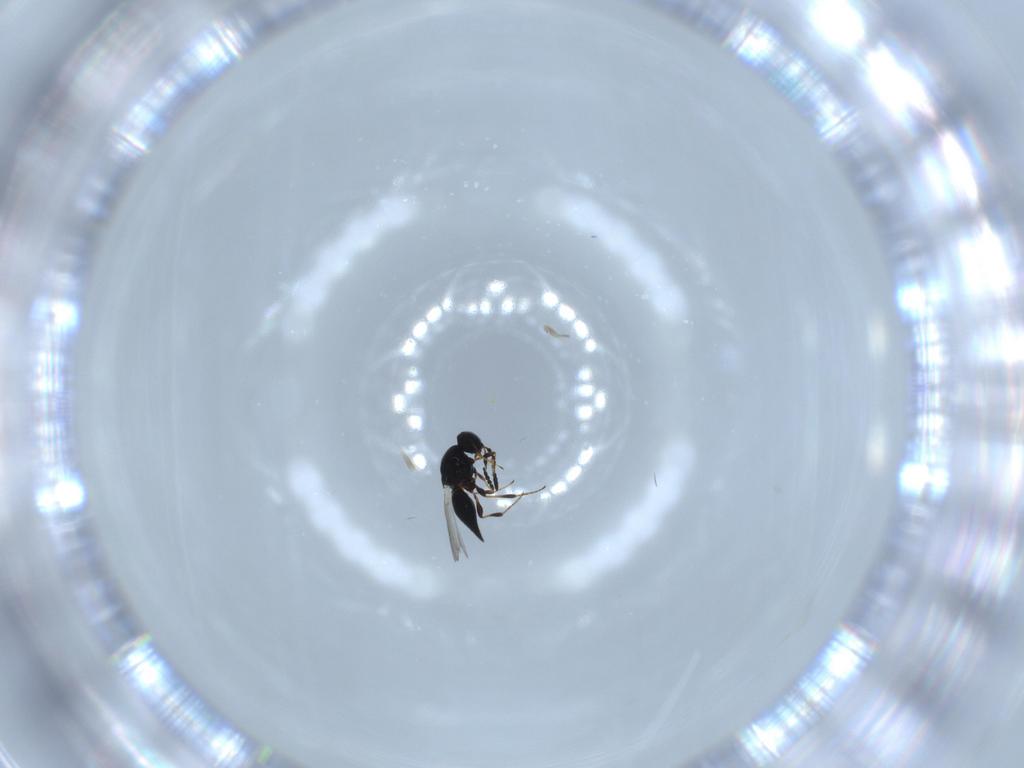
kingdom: Animalia
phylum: Arthropoda
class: Insecta
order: Hymenoptera
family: Platygastridae
